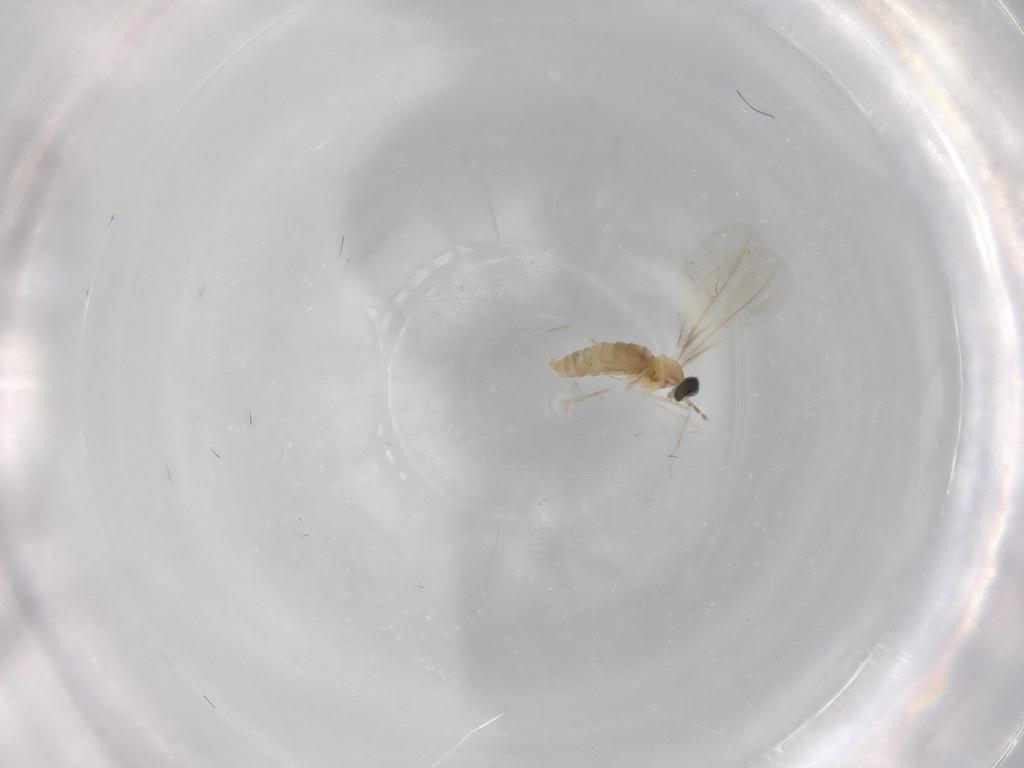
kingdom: Animalia
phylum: Arthropoda
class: Insecta
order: Diptera
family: Cecidomyiidae
